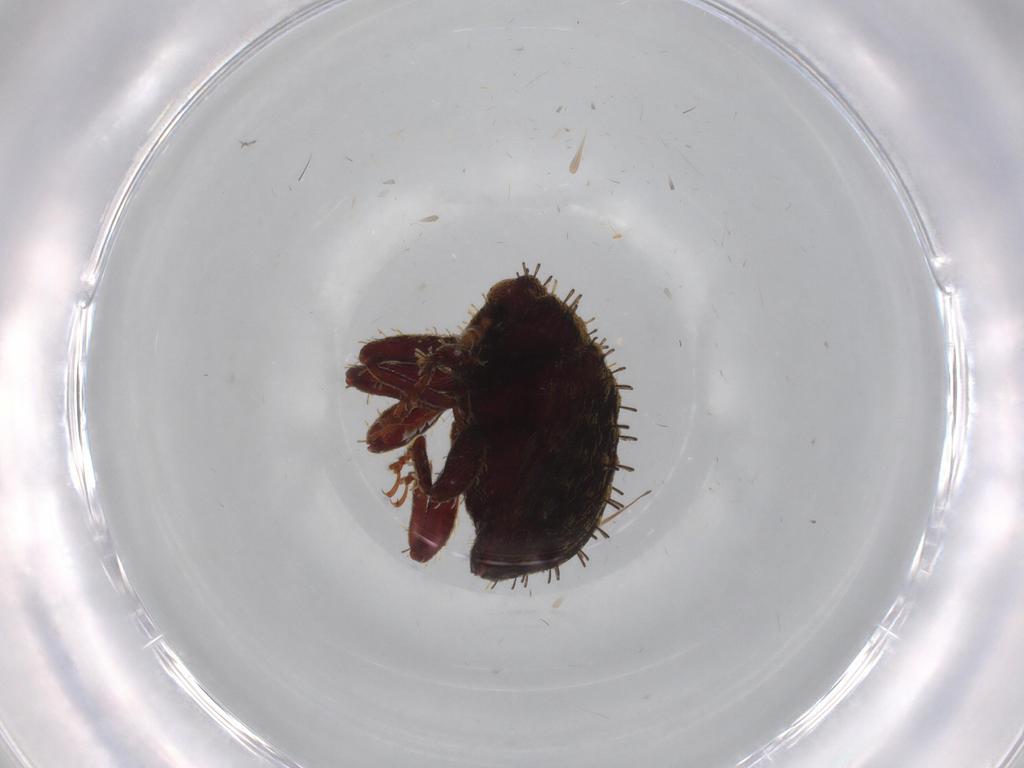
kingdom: Animalia
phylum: Arthropoda
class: Insecta
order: Coleoptera
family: Curculionidae
